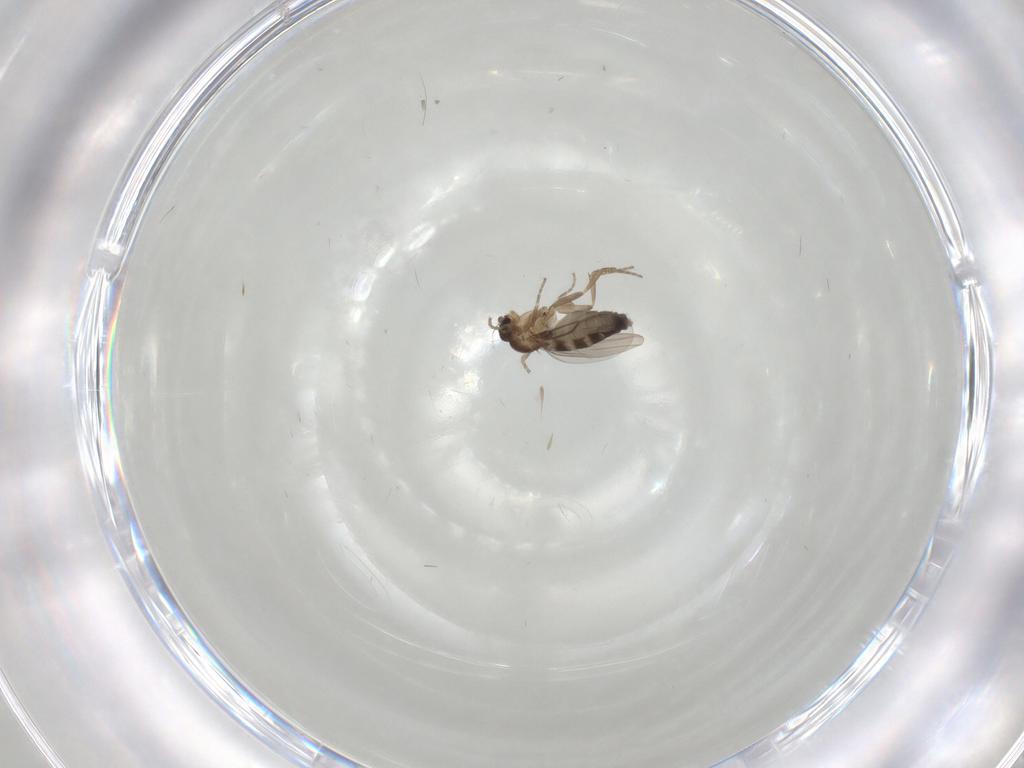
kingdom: Animalia
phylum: Arthropoda
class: Insecta
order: Diptera
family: Phoridae
